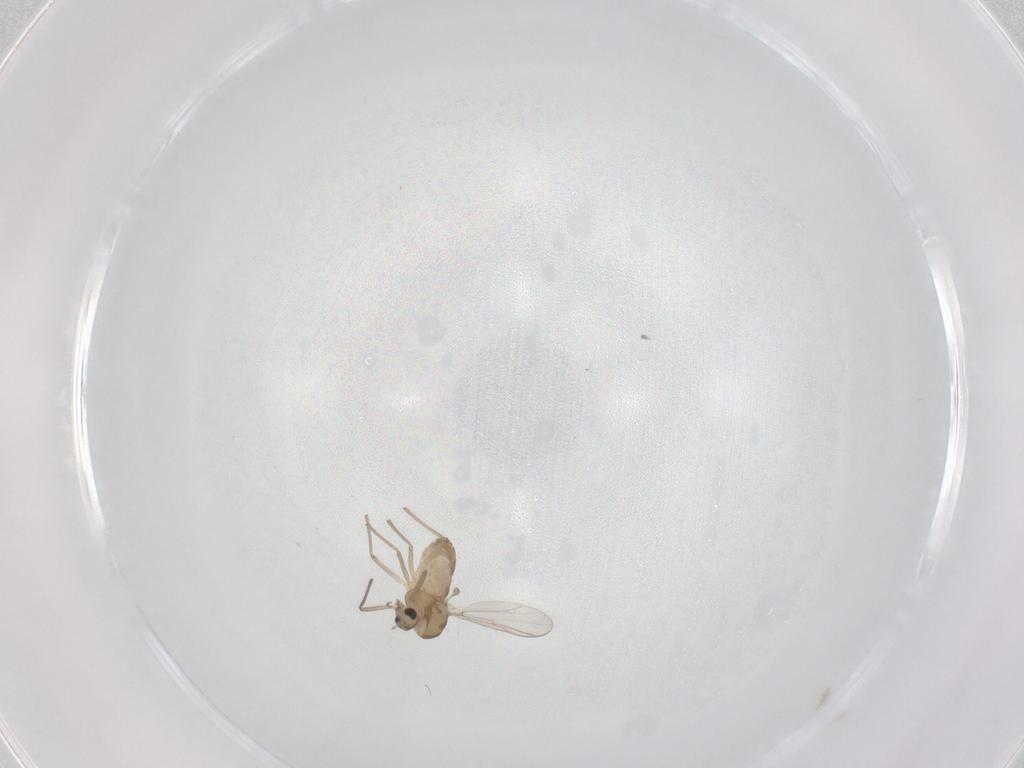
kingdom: Animalia
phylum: Arthropoda
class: Insecta
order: Diptera
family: Chironomidae
